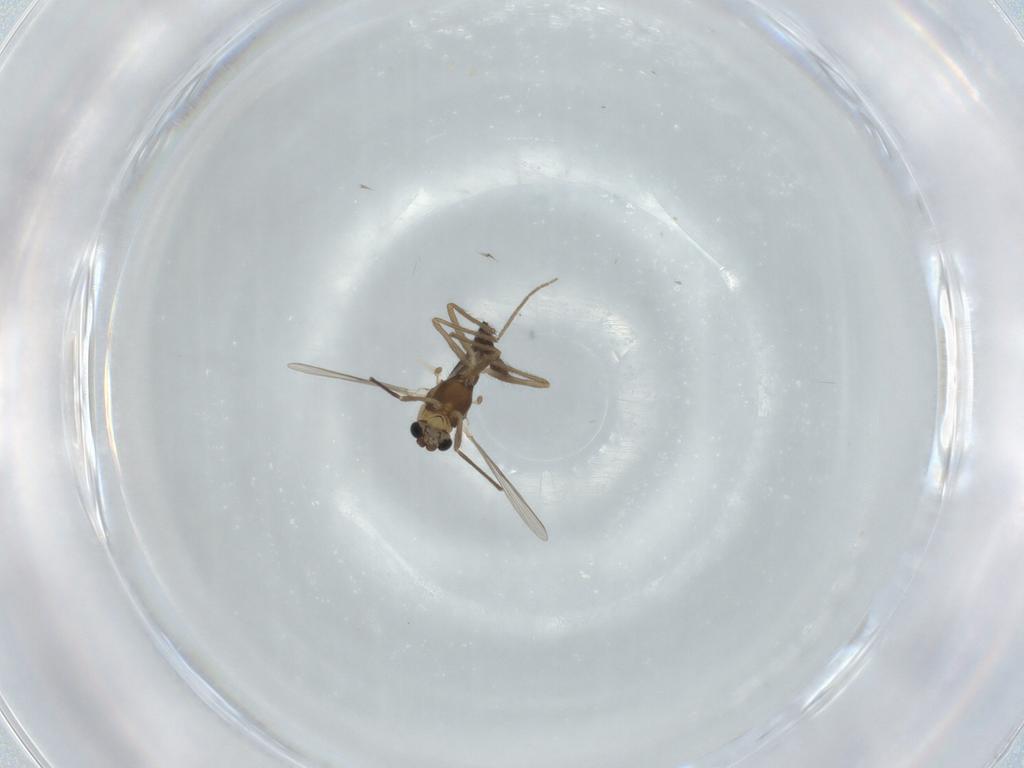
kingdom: Animalia
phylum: Arthropoda
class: Insecta
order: Diptera
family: Chironomidae
